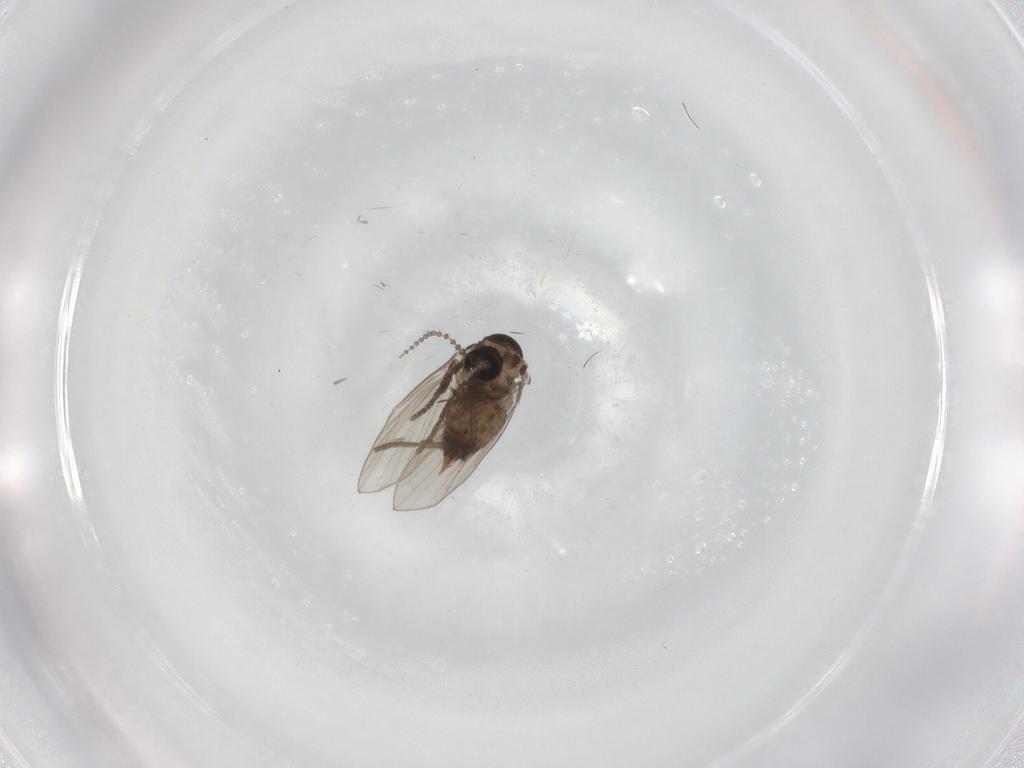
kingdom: Animalia
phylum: Arthropoda
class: Insecta
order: Diptera
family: Psychodidae
